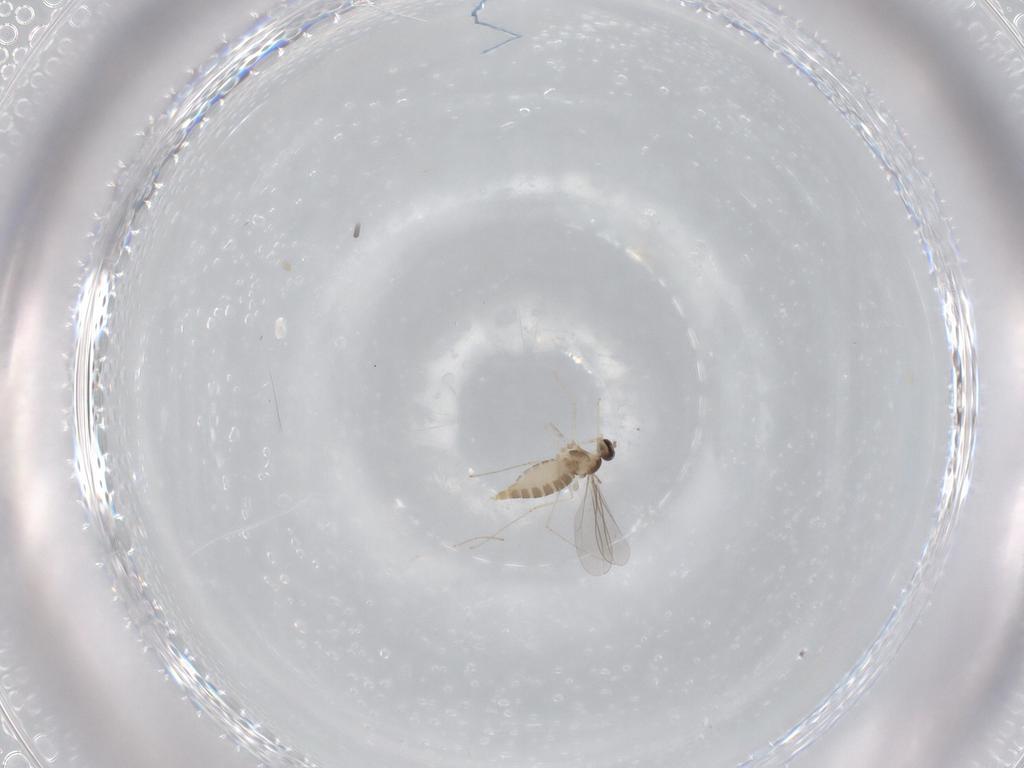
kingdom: Animalia
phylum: Arthropoda
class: Insecta
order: Diptera
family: Cecidomyiidae
